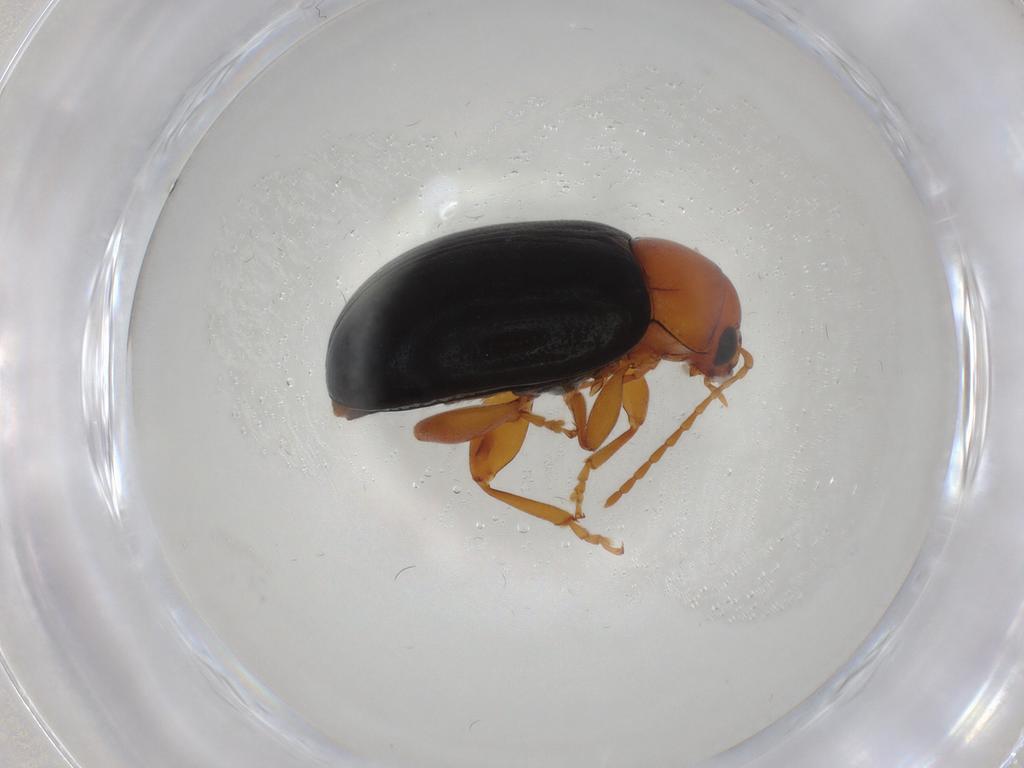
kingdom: Animalia
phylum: Arthropoda
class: Insecta
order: Coleoptera
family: Chrysomelidae
